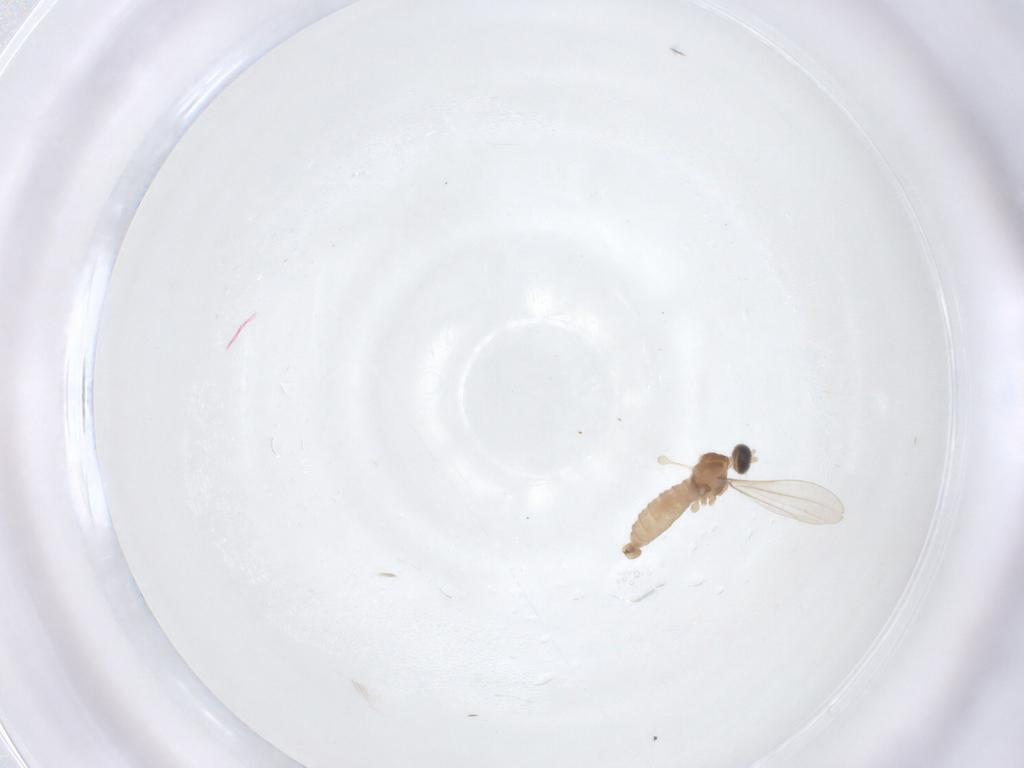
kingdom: Animalia
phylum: Arthropoda
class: Insecta
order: Diptera
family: Cecidomyiidae
